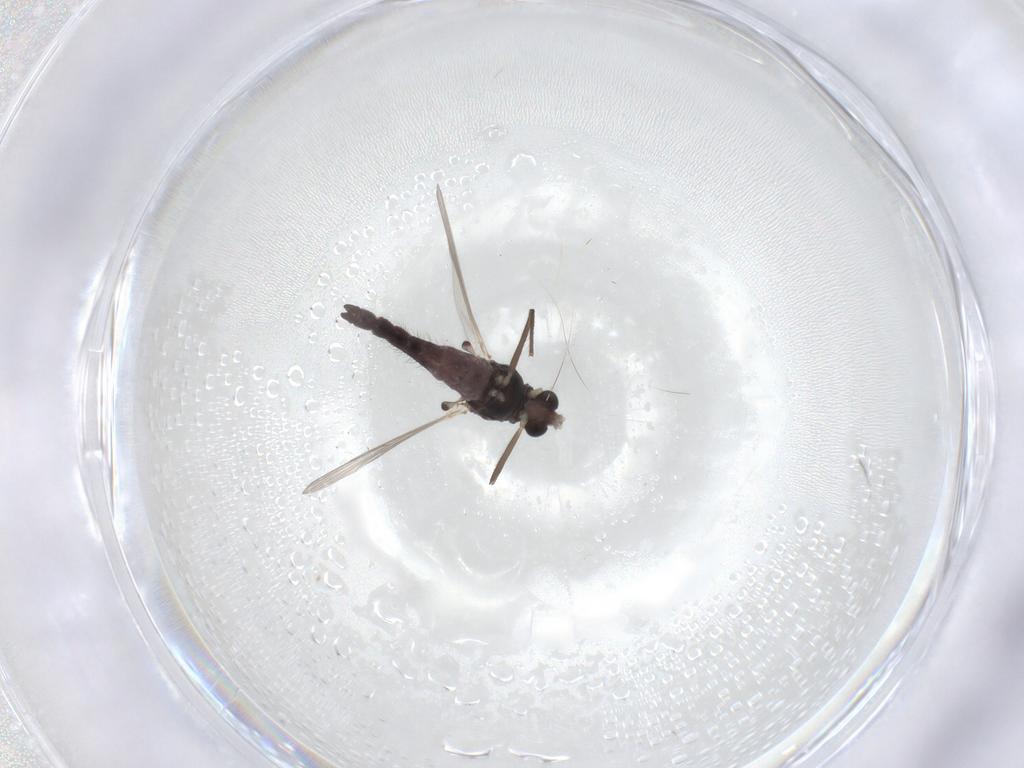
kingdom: Animalia
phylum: Arthropoda
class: Insecta
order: Diptera
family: Chironomidae
